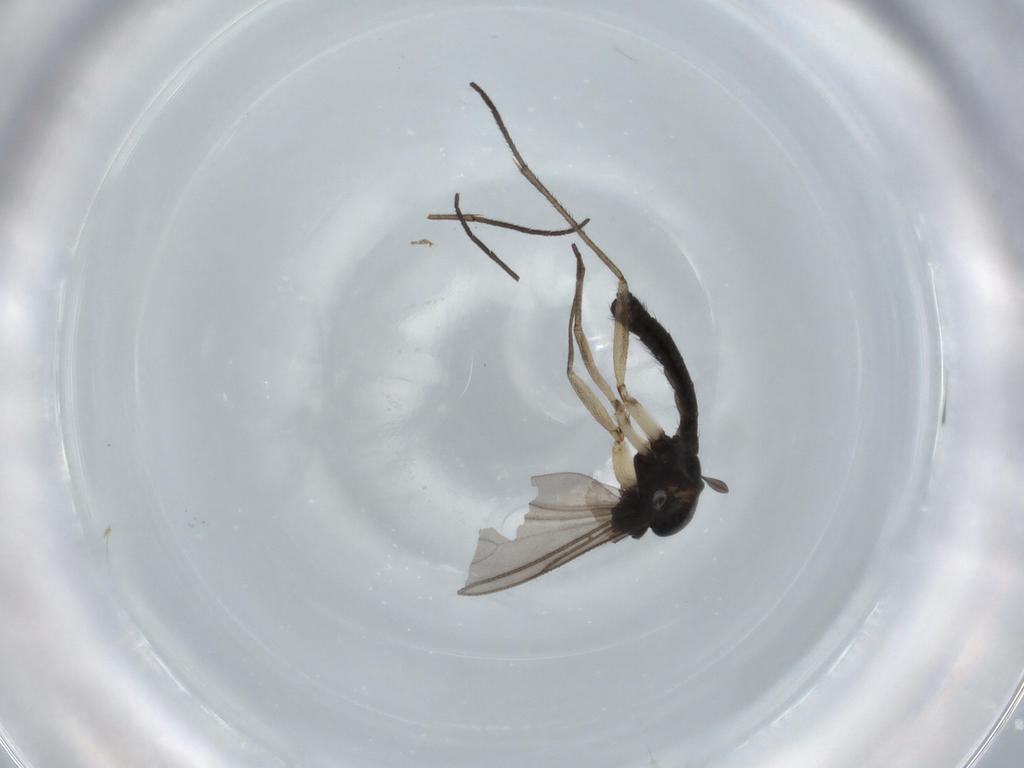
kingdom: Animalia
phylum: Arthropoda
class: Insecta
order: Diptera
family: Sciaridae
